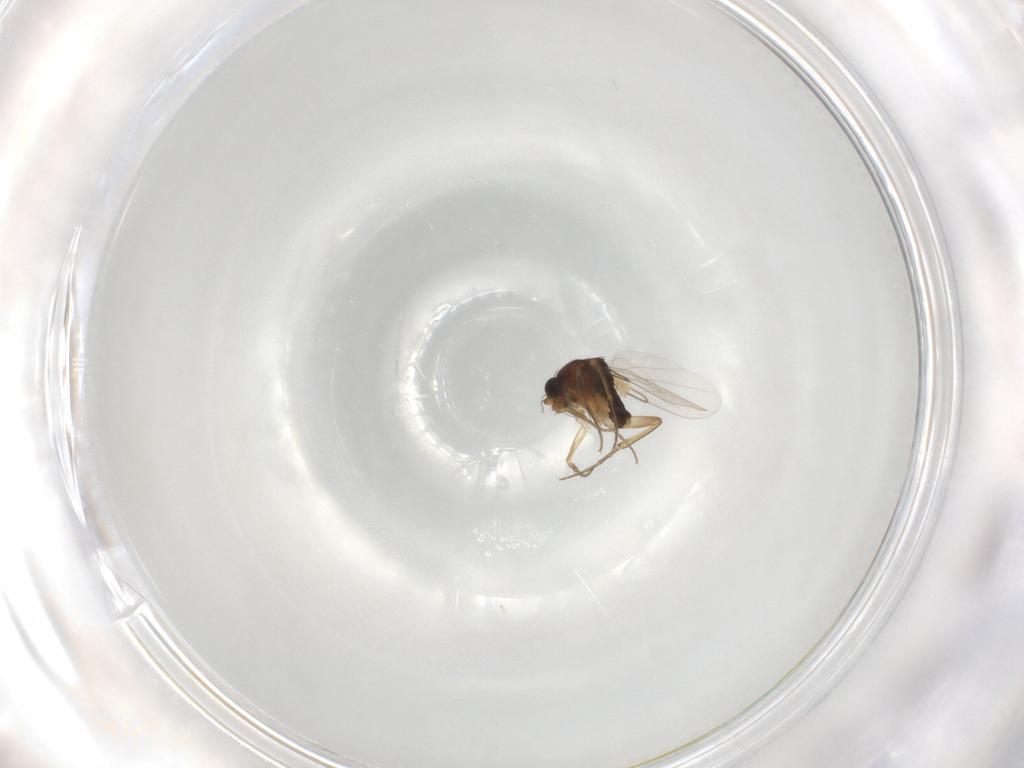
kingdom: Animalia
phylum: Arthropoda
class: Insecta
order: Diptera
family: Phoridae
